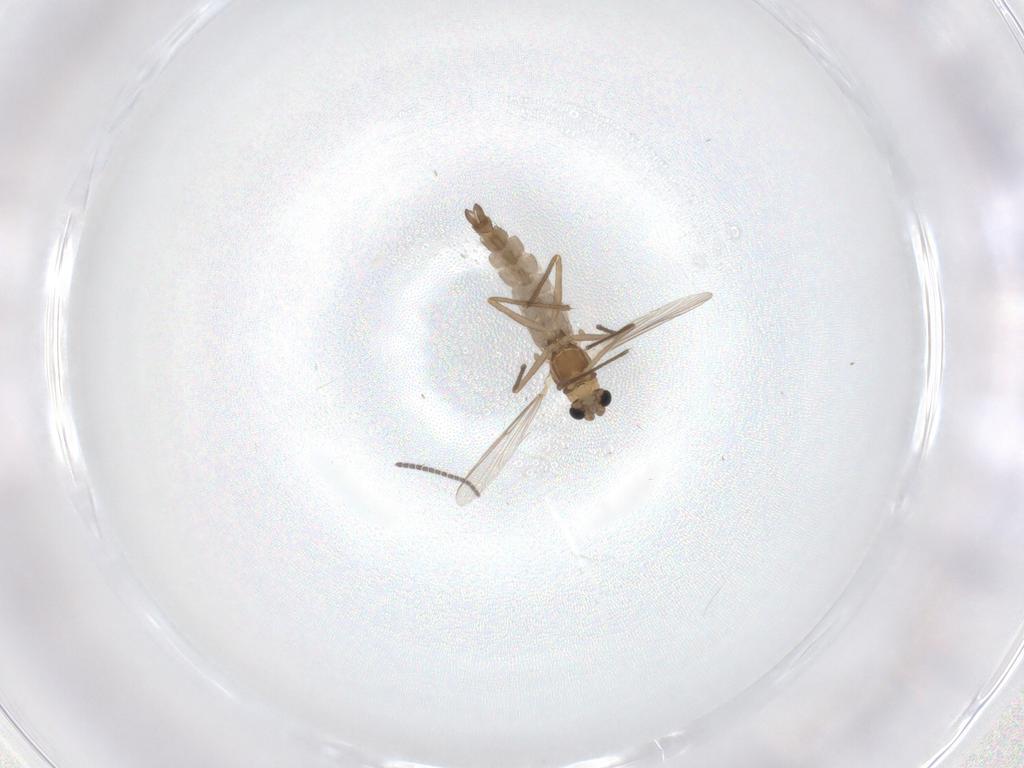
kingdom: Animalia
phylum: Arthropoda
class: Insecta
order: Diptera
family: Chironomidae
